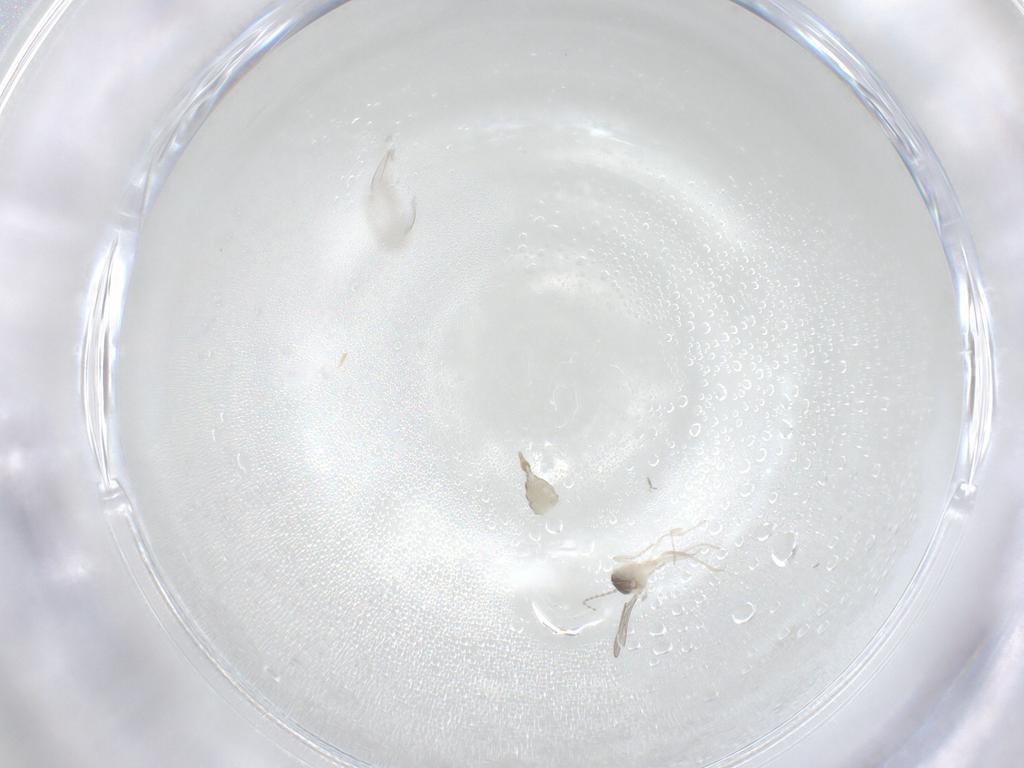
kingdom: Animalia
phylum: Arthropoda
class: Insecta
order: Diptera
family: Cecidomyiidae
